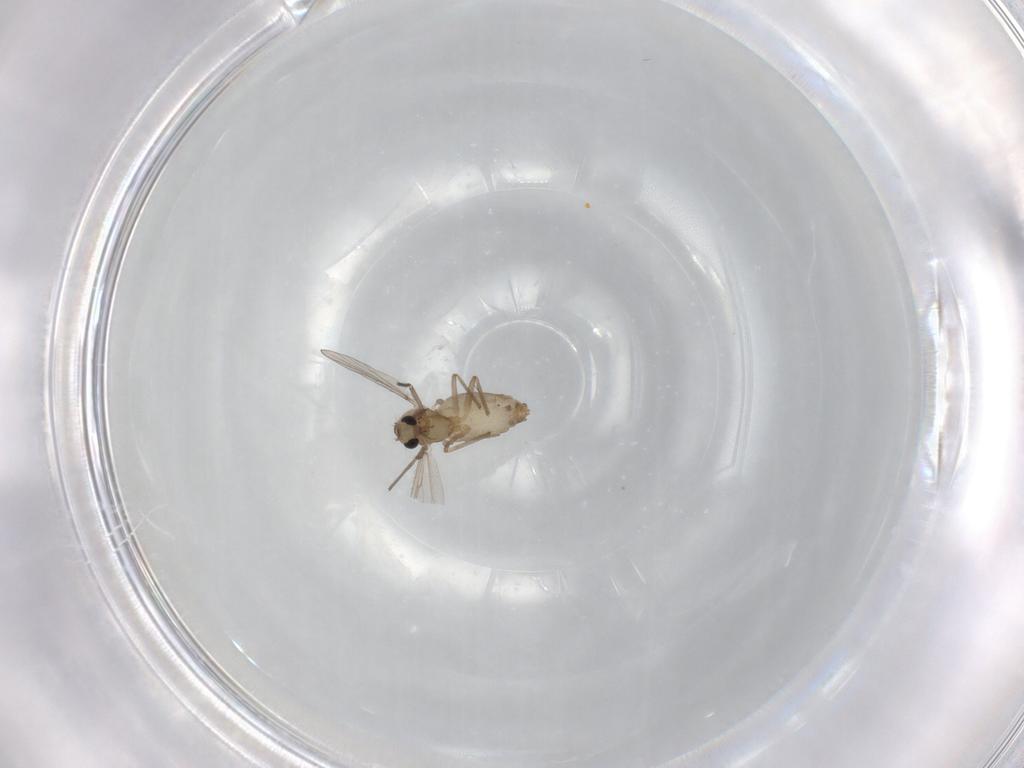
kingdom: Animalia
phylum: Arthropoda
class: Insecta
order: Diptera
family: Chironomidae
